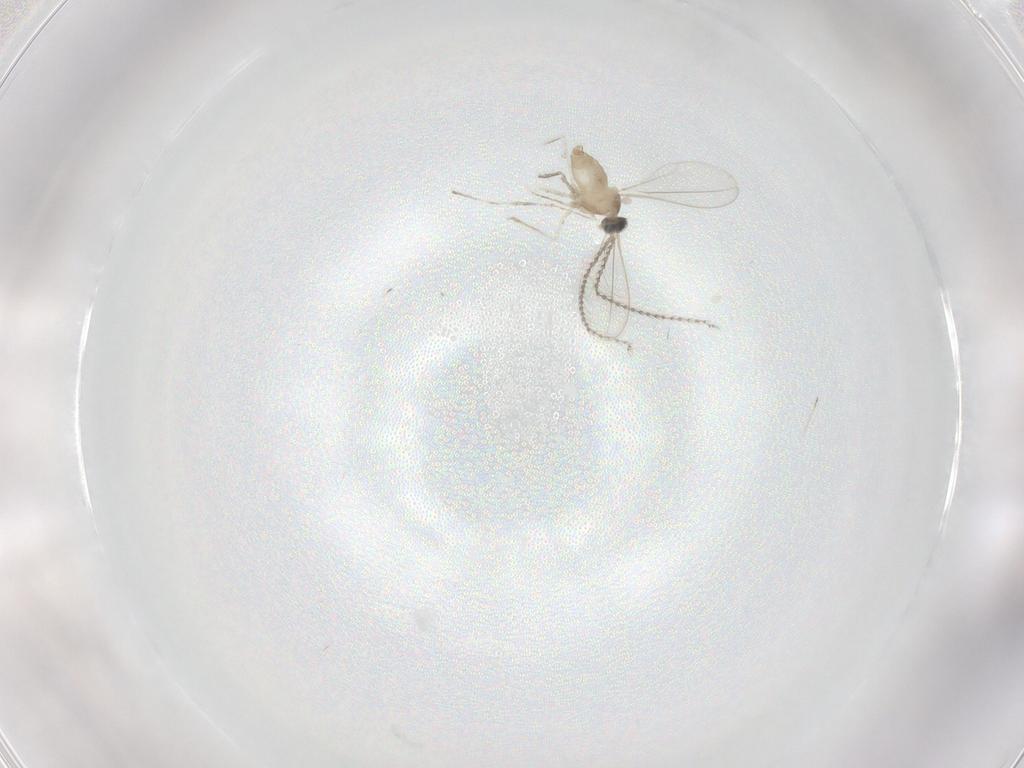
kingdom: Animalia
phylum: Arthropoda
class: Insecta
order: Diptera
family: Cecidomyiidae
